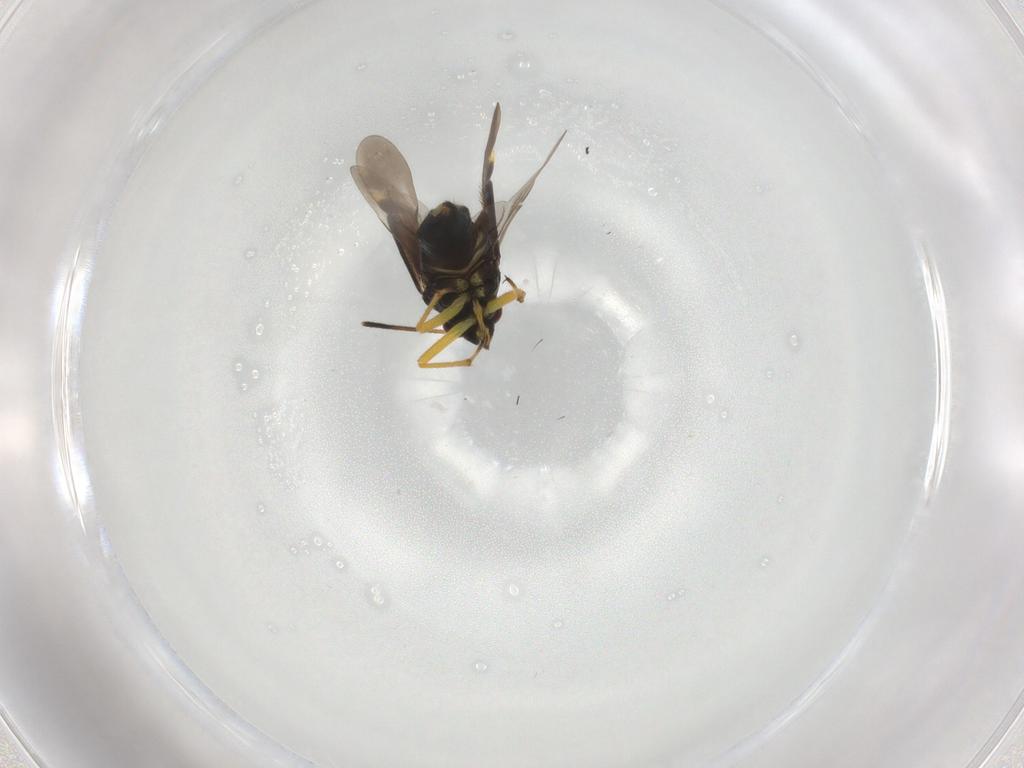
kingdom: Animalia
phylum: Arthropoda
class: Insecta
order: Hemiptera
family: Miridae
